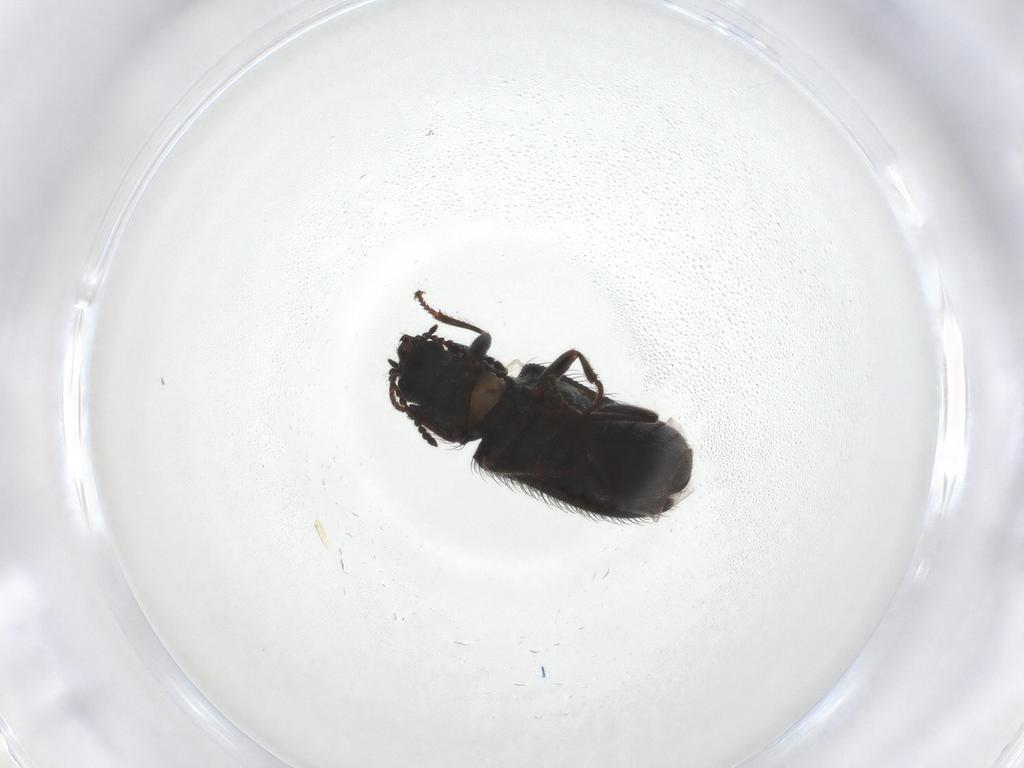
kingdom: Animalia
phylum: Arthropoda
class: Insecta
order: Coleoptera
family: Melyridae
